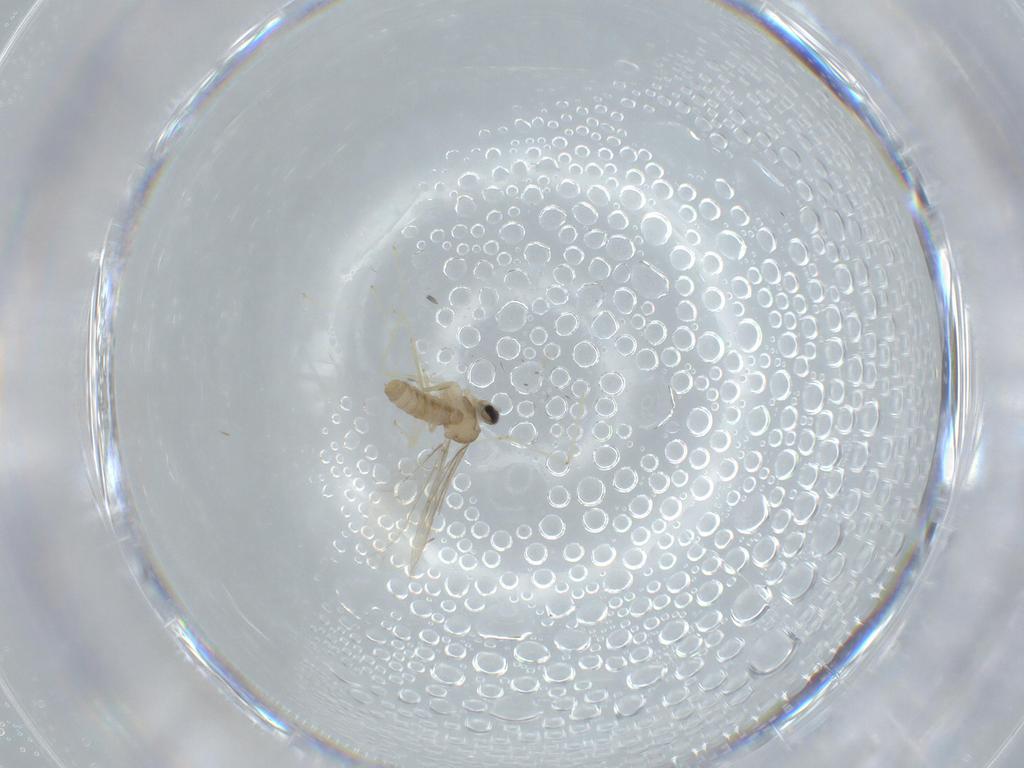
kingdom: Animalia
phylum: Arthropoda
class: Insecta
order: Diptera
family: Cecidomyiidae
